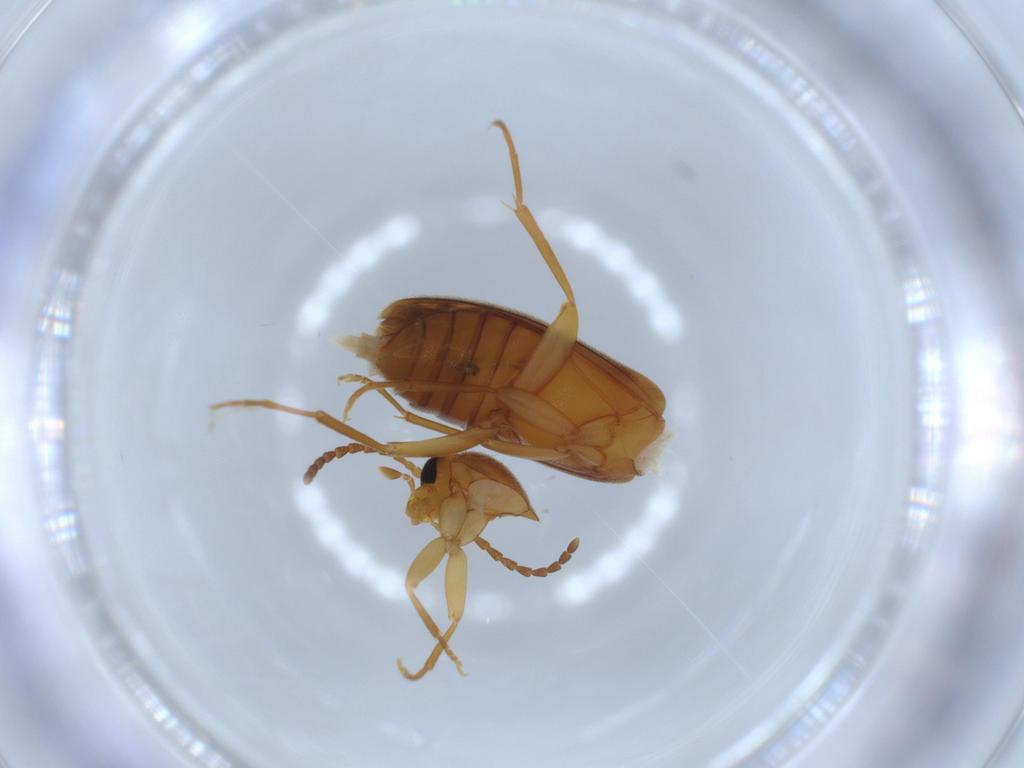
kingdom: Animalia
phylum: Arthropoda
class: Insecta
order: Coleoptera
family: Scraptiidae
